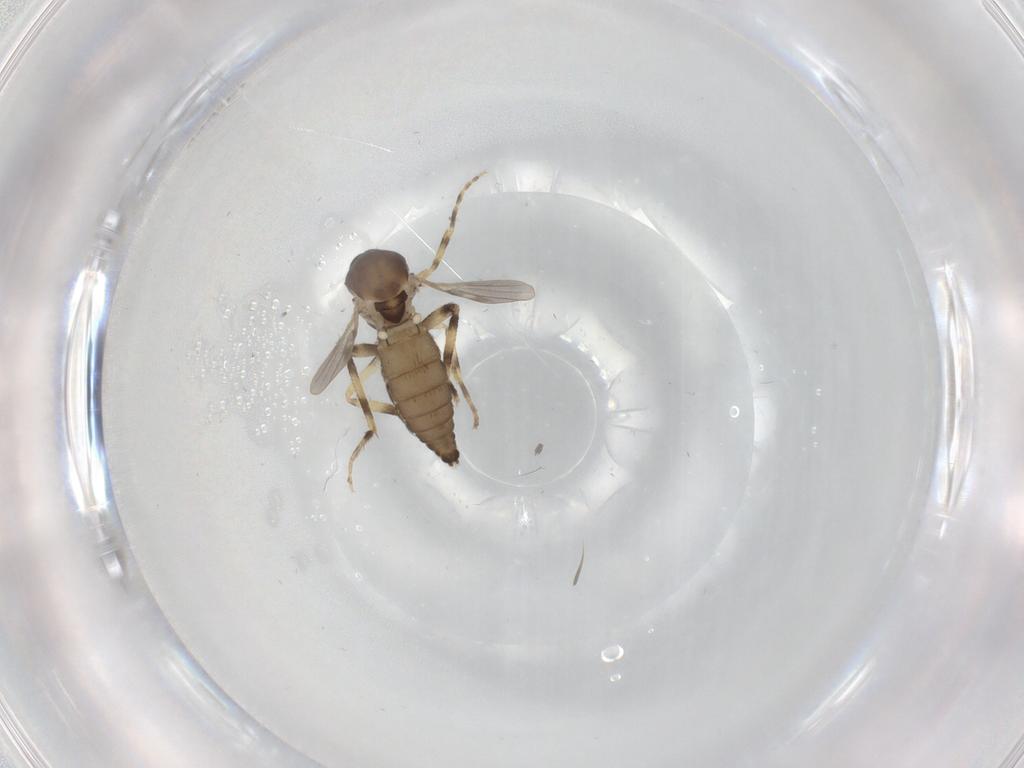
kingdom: Animalia
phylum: Arthropoda
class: Insecta
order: Diptera
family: Ceratopogonidae
